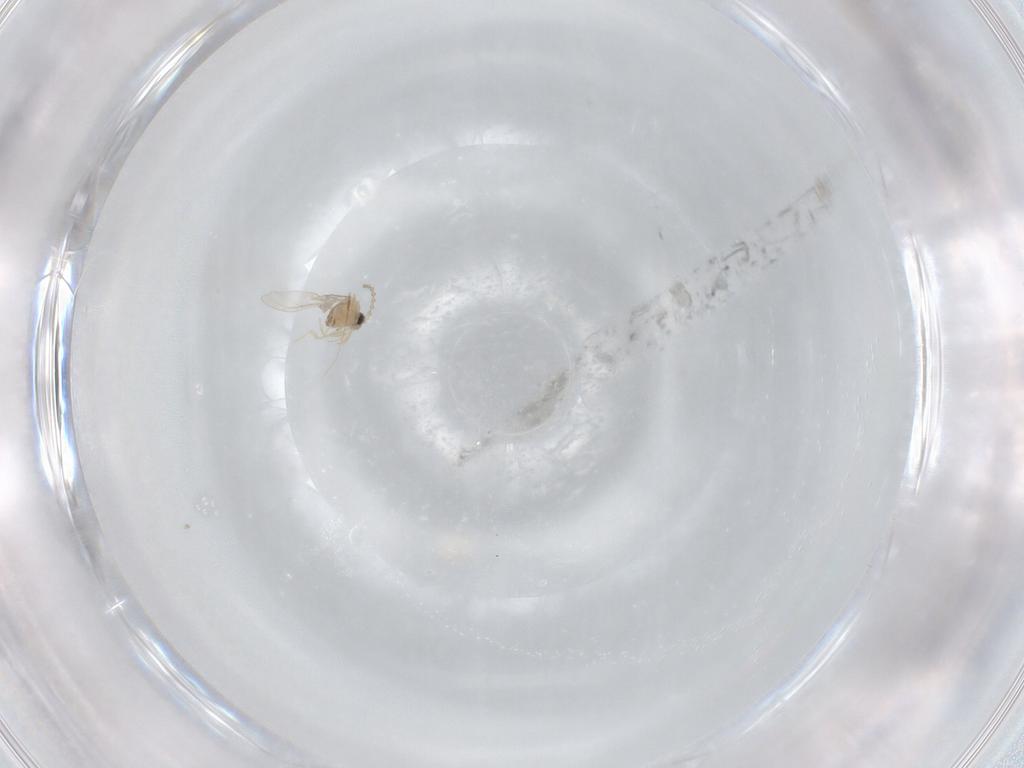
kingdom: Animalia
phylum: Arthropoda
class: Insecta
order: Diptera
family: Cecidomyiidae
